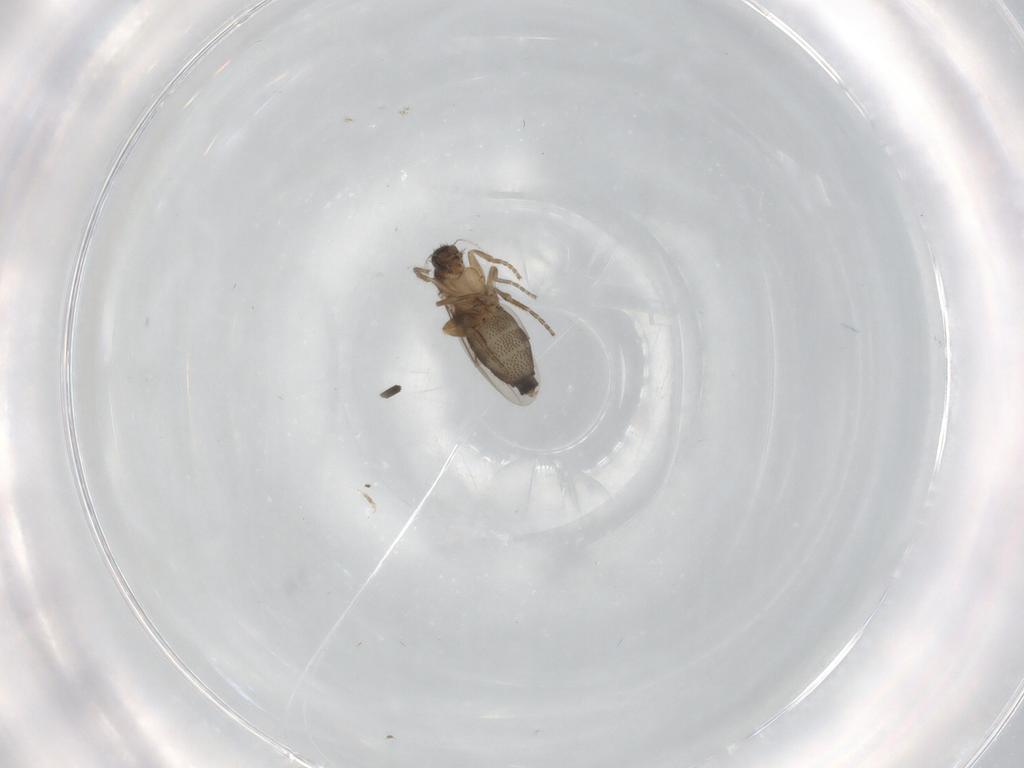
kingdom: Animalia
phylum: Arthropoda
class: Insecta
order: Diptera
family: Phoridae
